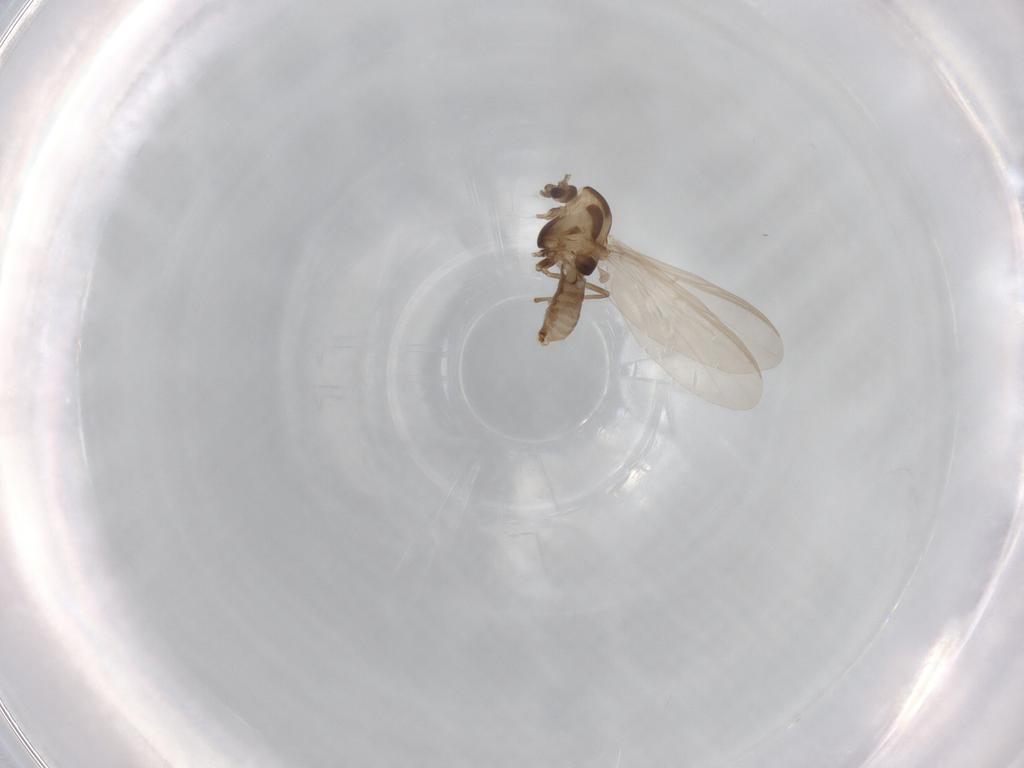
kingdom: Animalia
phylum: Arthropoda
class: Insecta
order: Diptera
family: Chironomidae
